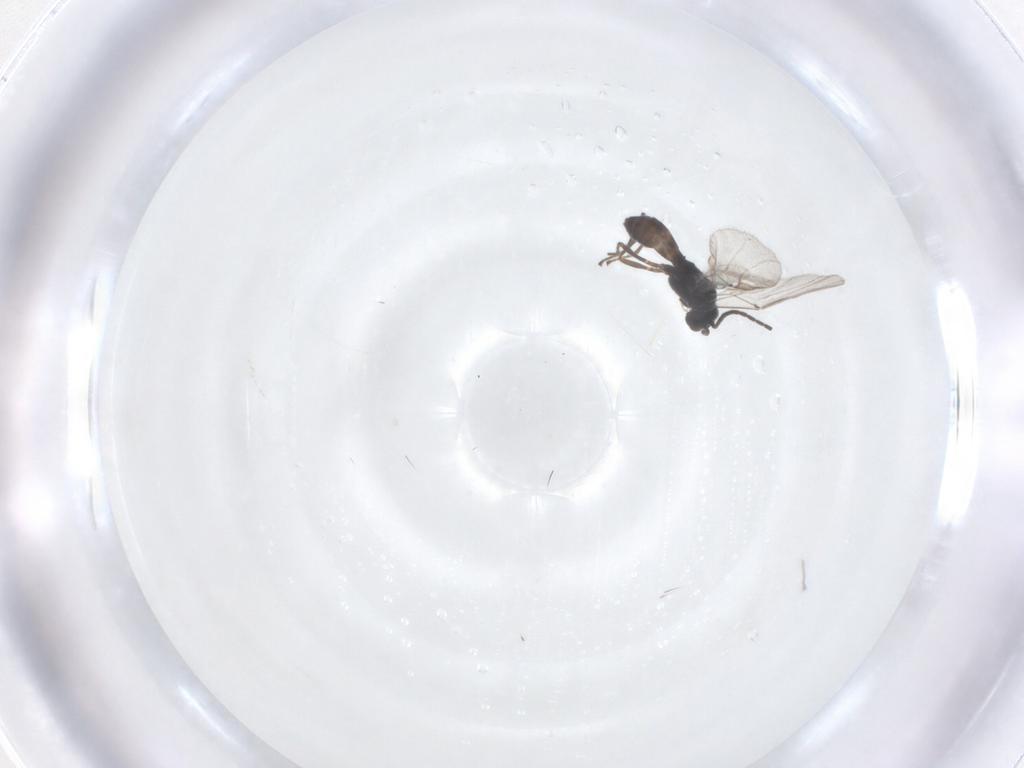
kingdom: Animalia
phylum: Arthropoda
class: Insecta
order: Hymenoptera
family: Braconidae
